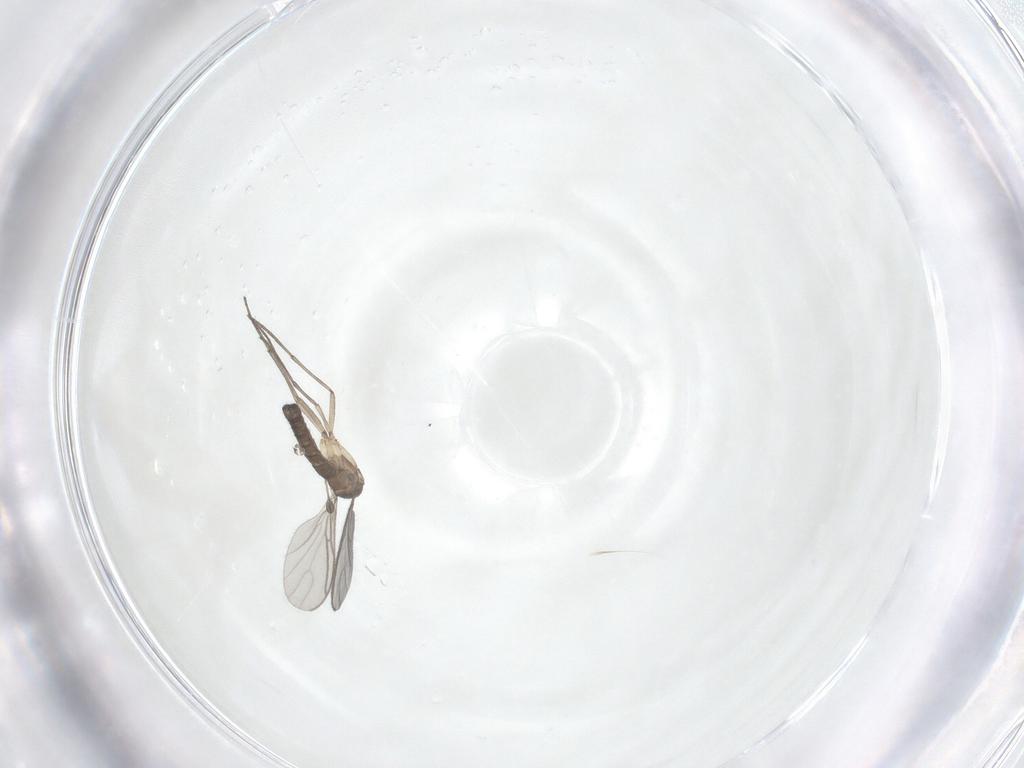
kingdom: Animalia
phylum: Arthropoda
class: Insecta
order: Diptera
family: Sciaridae
